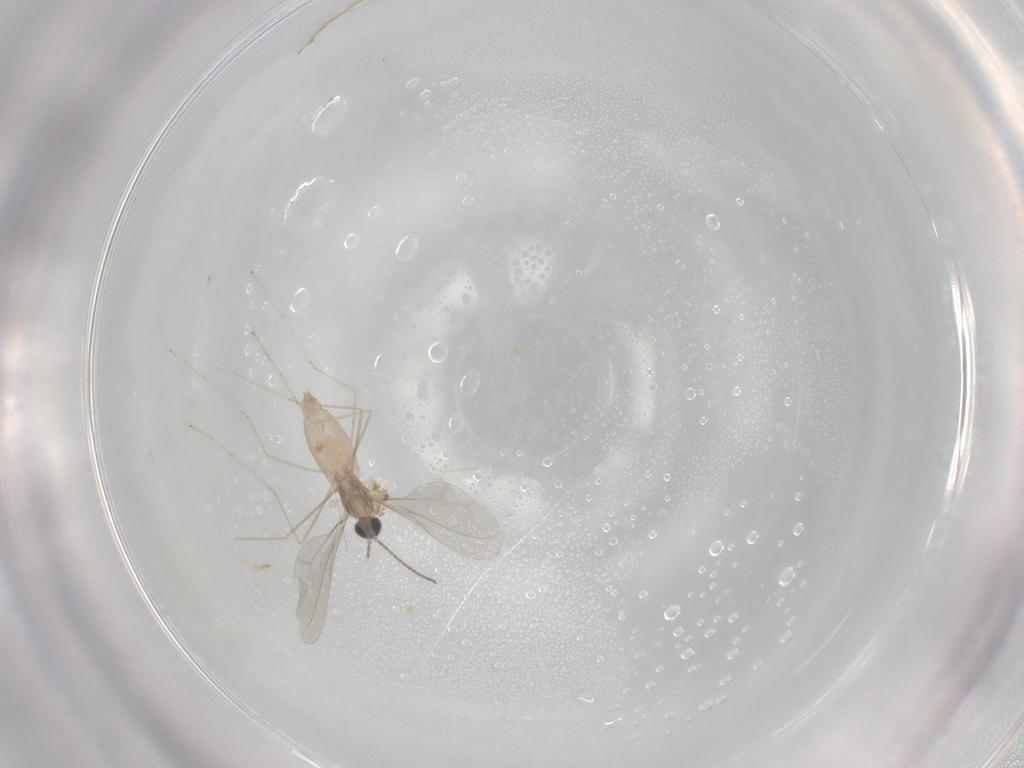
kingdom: Animalia
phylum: Arthropoda
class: Insecta
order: Diptera
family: Cecidomyiidae
